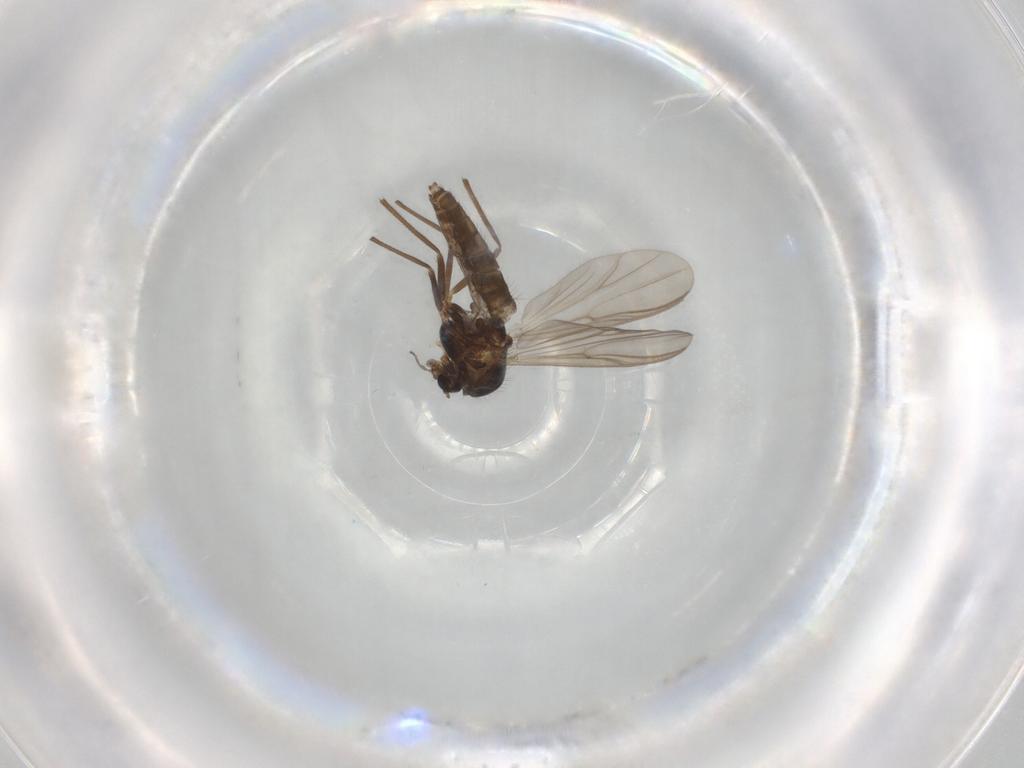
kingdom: Animalia
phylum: Arthropoda
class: Insecta
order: Diptera
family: Chironomidae
